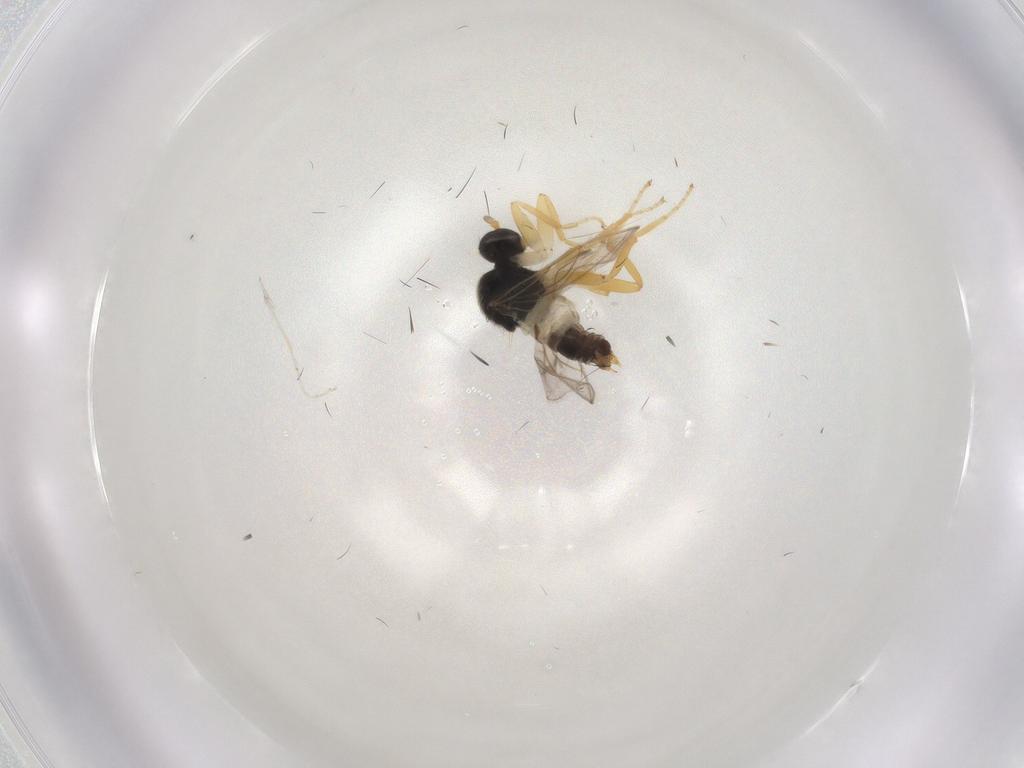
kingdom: Animalia
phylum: Arthropoda
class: Insecta
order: Diptera
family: Hybotidae
